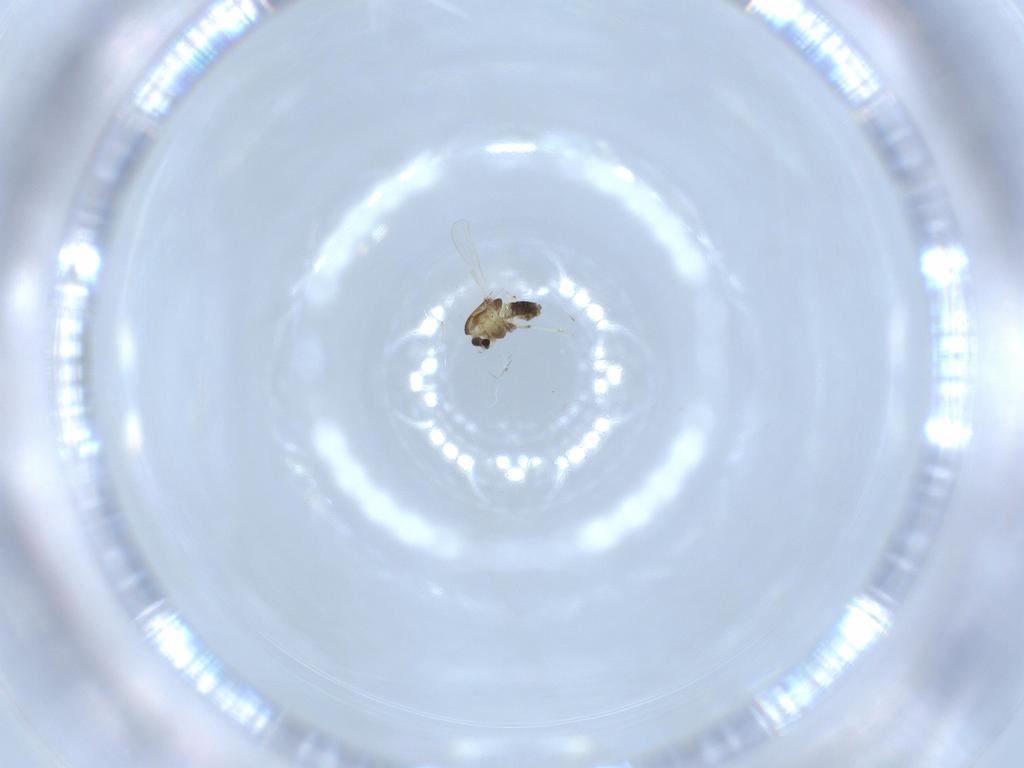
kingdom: Animalia
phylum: Arthropoda
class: Insecta
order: Diptera
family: Chironomidae
